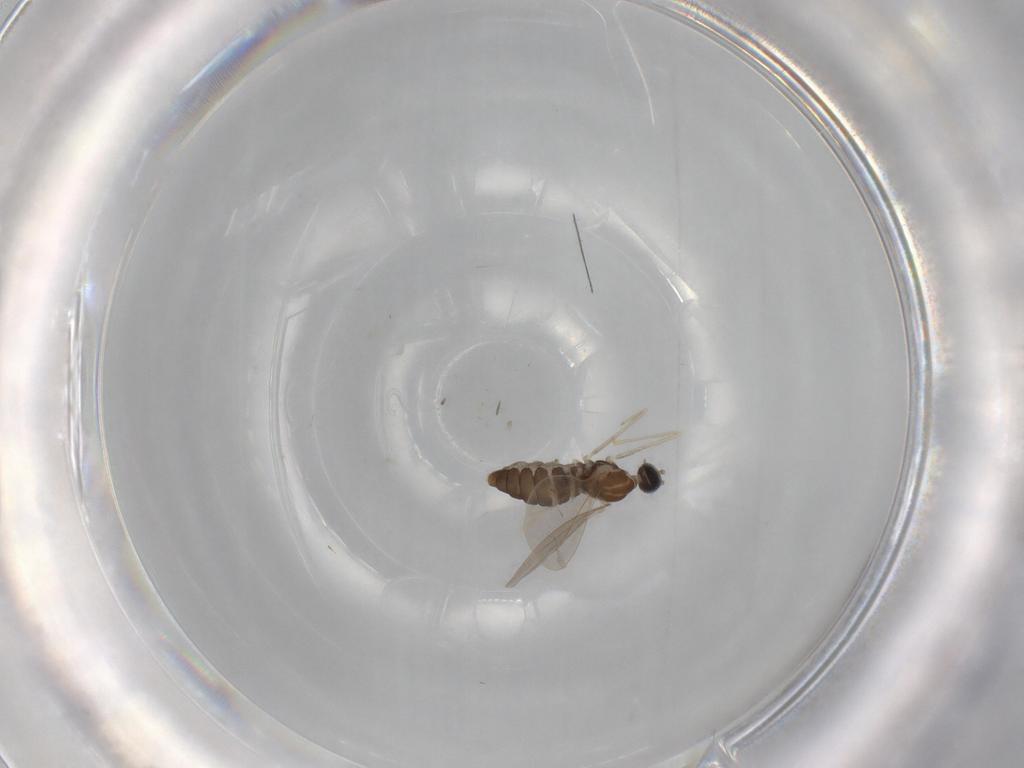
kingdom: Animalia
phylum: Arthropoda
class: Insecta
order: Diptera
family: Cecidomyiidae
